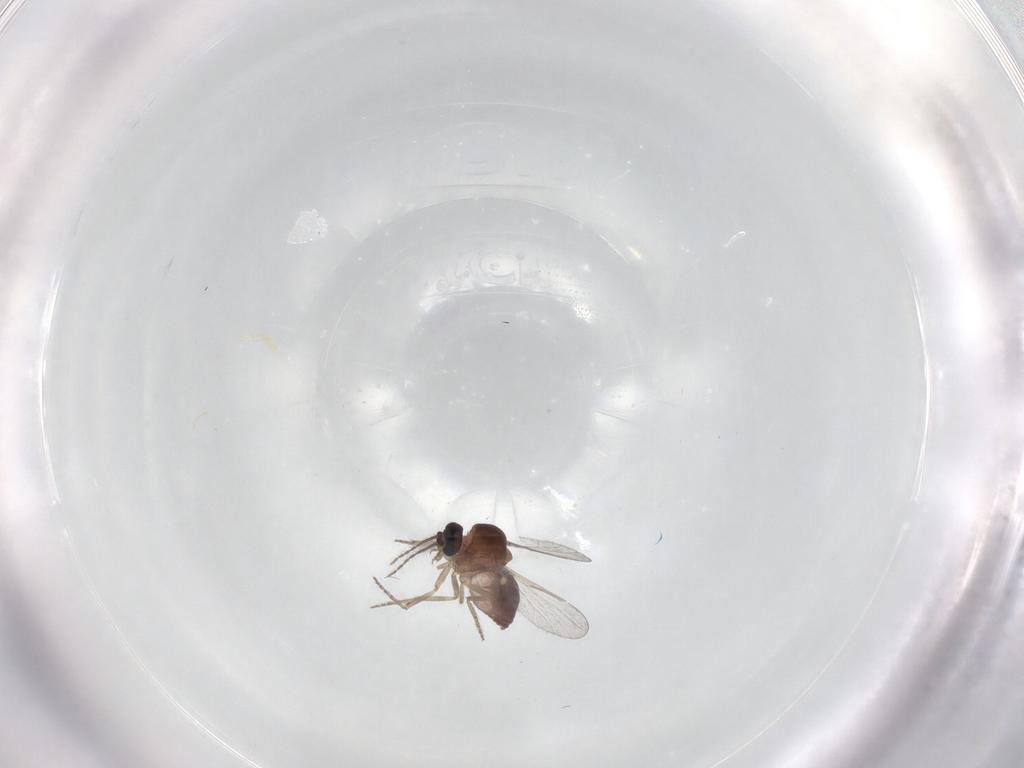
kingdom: Animalia
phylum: Arthropoda
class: Insecta
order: Diptera
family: Ceratopogonidae
